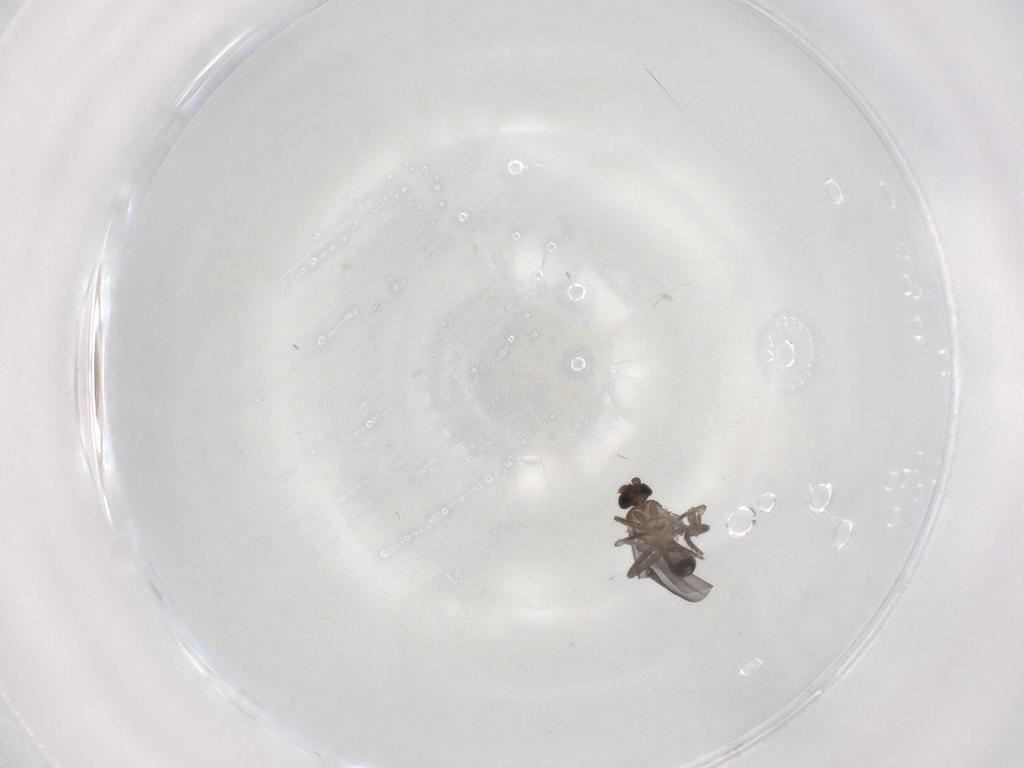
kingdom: Animalia
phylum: Arthropoda
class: Insecta
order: Diptera
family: Phoridae
